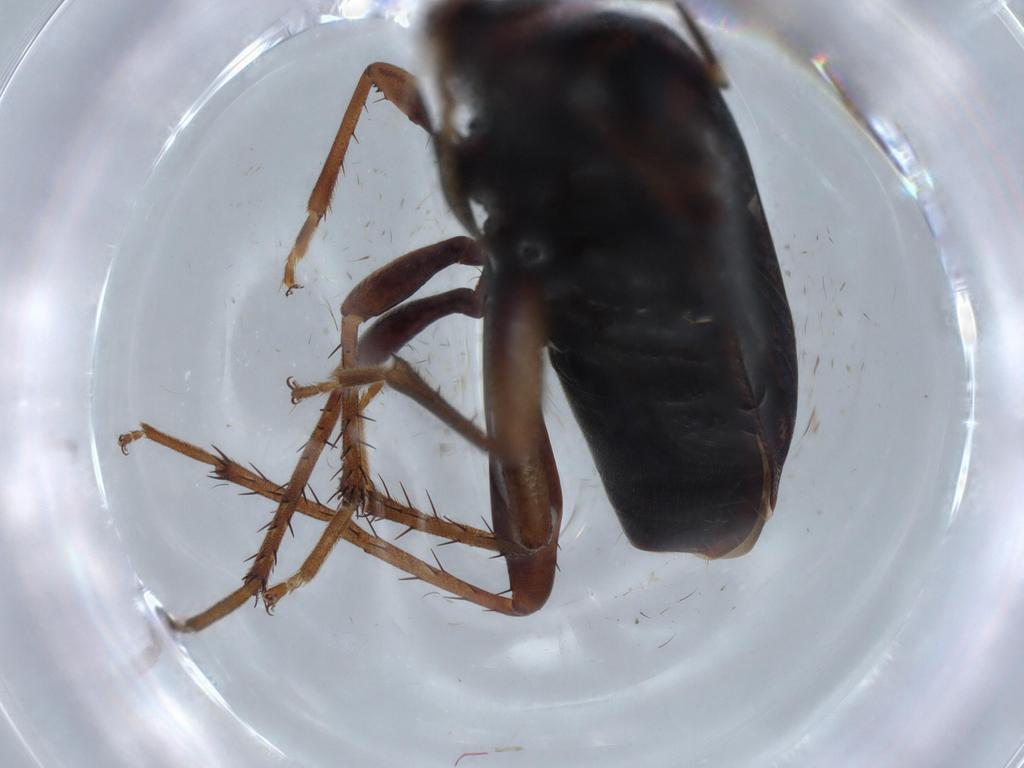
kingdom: Animalia
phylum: Arthropoda
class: Insecta
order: Hemiptera
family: Rhyparochromidae
